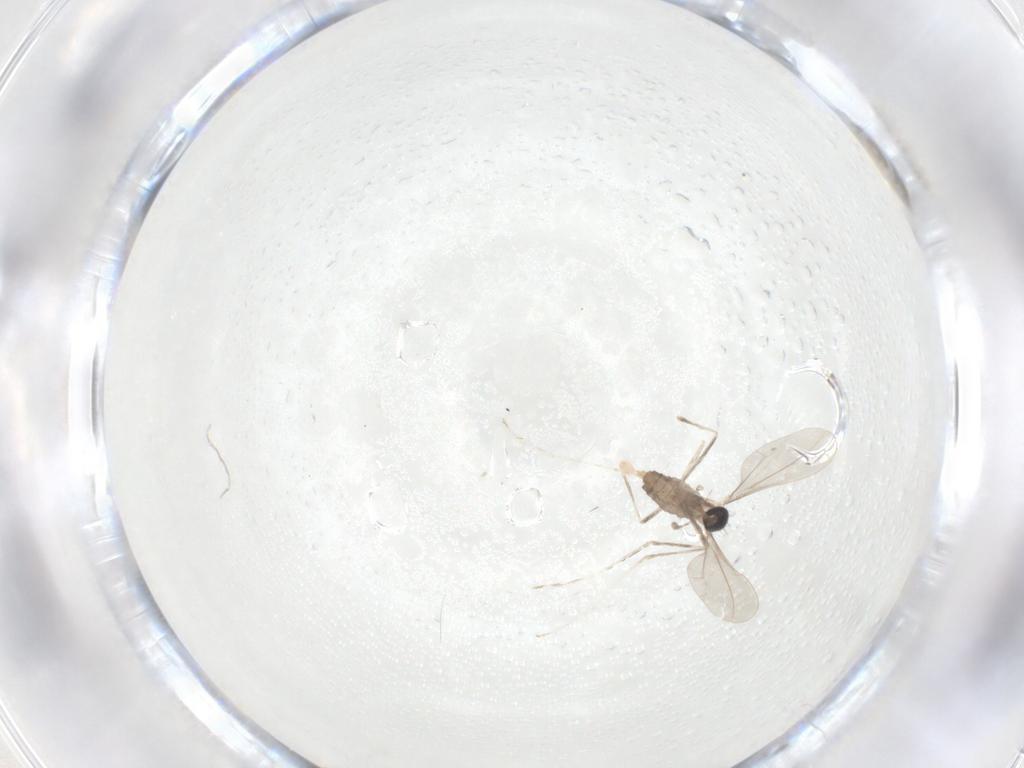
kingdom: Animalia
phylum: Arthropoda
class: Insecta
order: Diptera
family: Cecidomyiidae
